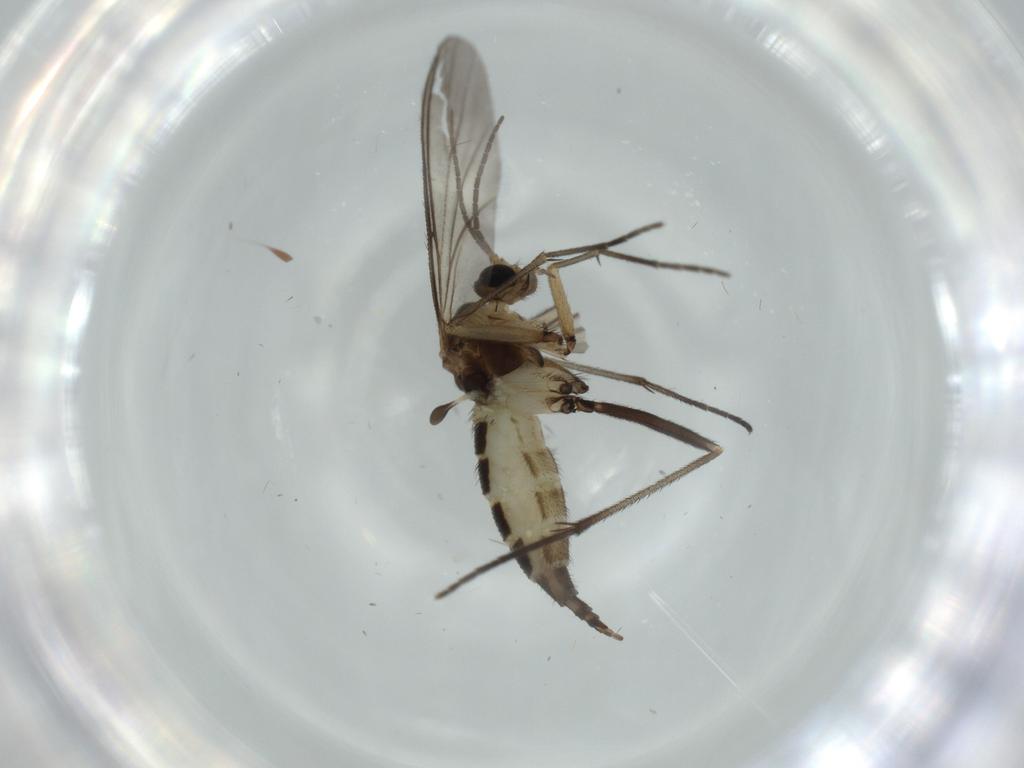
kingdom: Animalia
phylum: Arthropoda
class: Insecta
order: Diptera
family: Sciaridae
